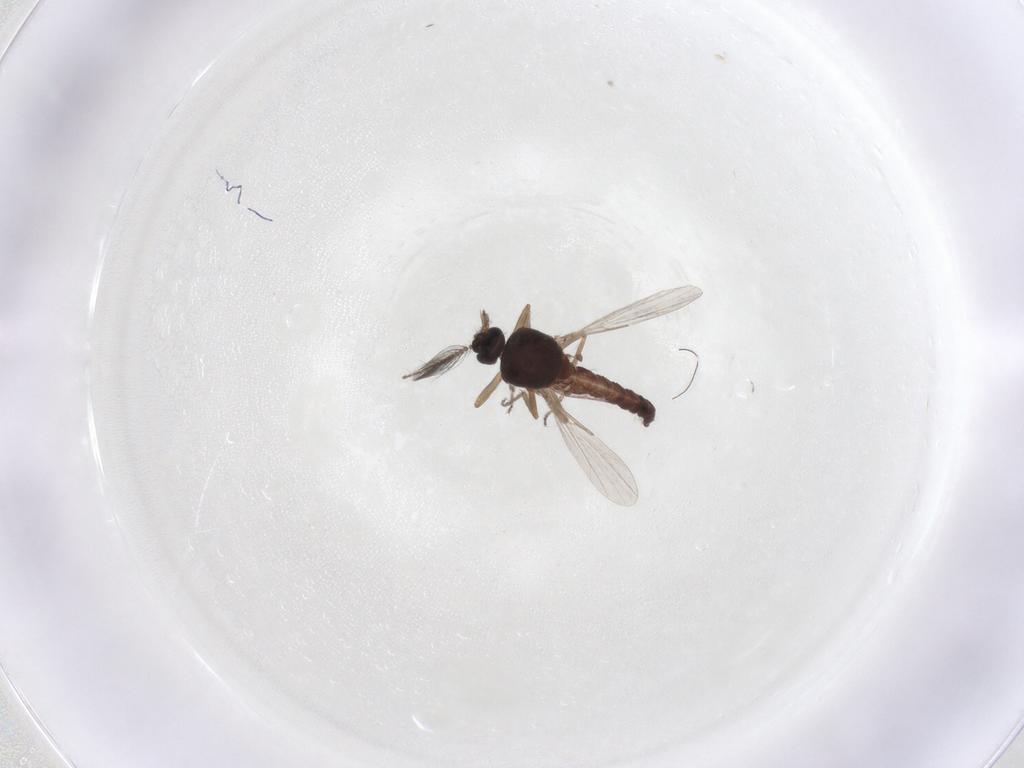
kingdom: Animalia
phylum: Arthropoda
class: Insecta
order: Diptera
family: Ceratopogonidae
